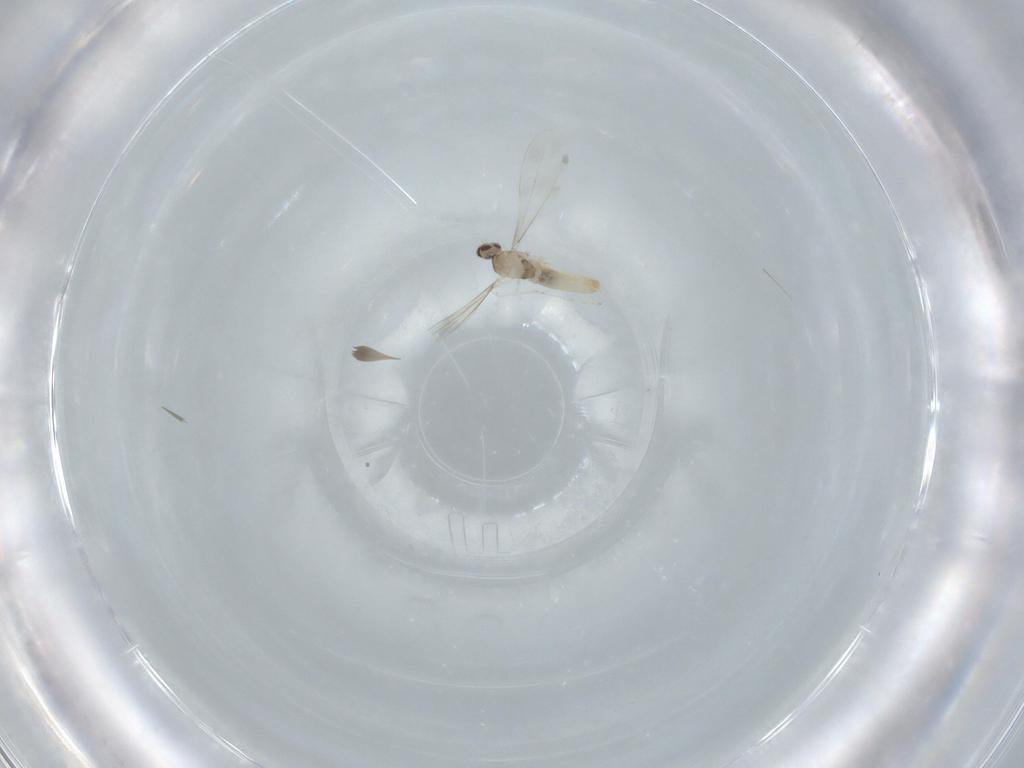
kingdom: Animalia
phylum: Arthropoda
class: Insecta
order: Diptera
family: Cecidomyiidae
